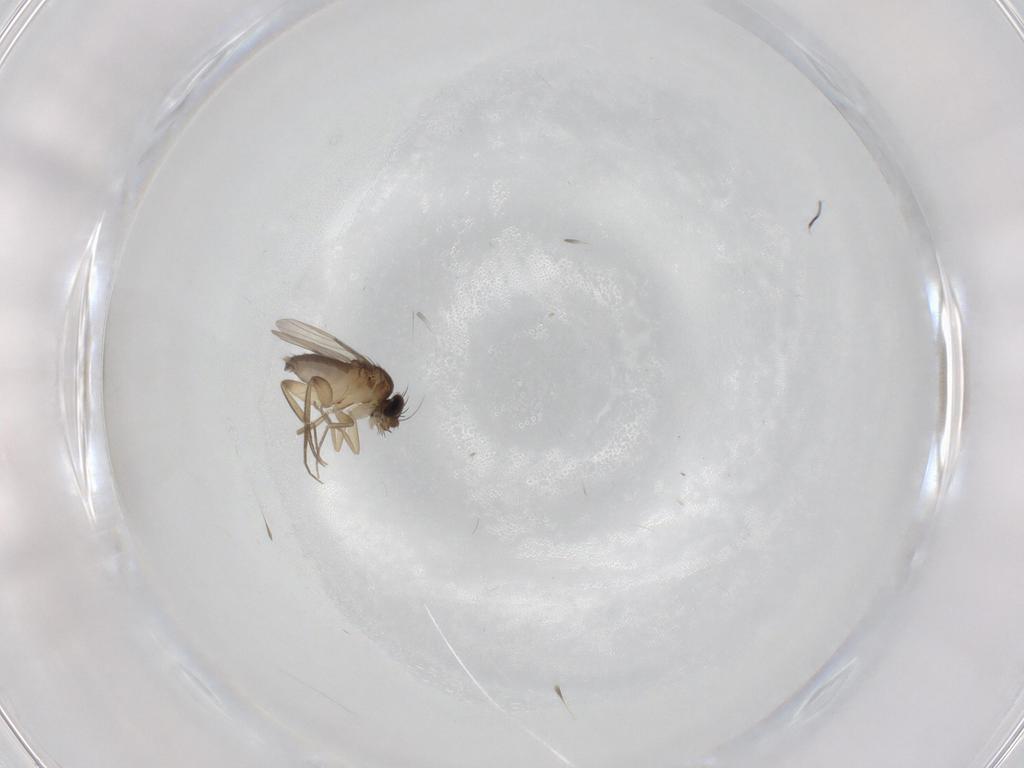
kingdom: Animalia
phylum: Arthropoda
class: Insecta
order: Diptera
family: Phoridae
